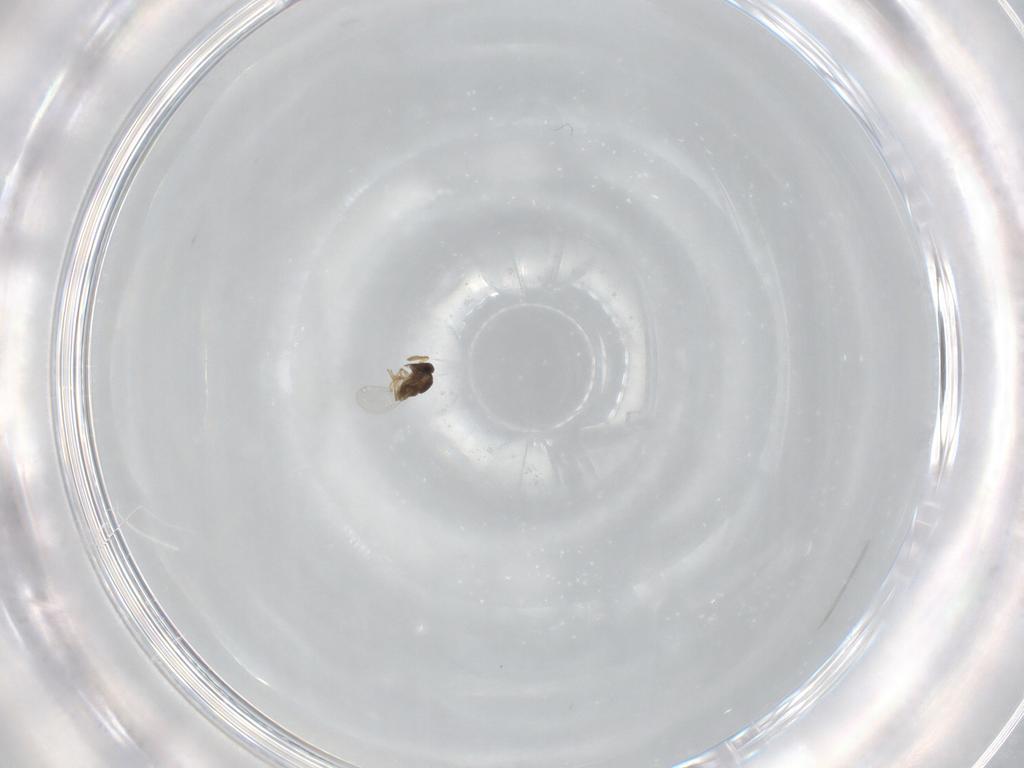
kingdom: Animalia
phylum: Arthropoda
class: Insecta
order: Hymenoptera
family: Encyrtidae
